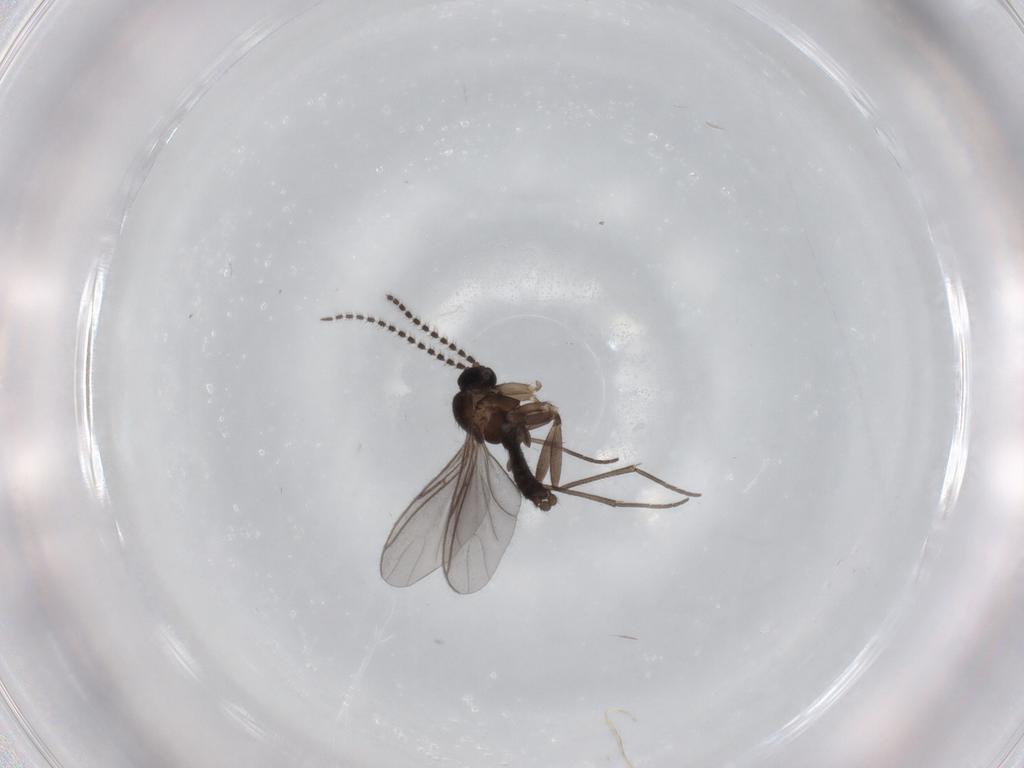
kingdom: Animalia
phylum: Arthropoda
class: Insecta
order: Diptera
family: Sciaridae
